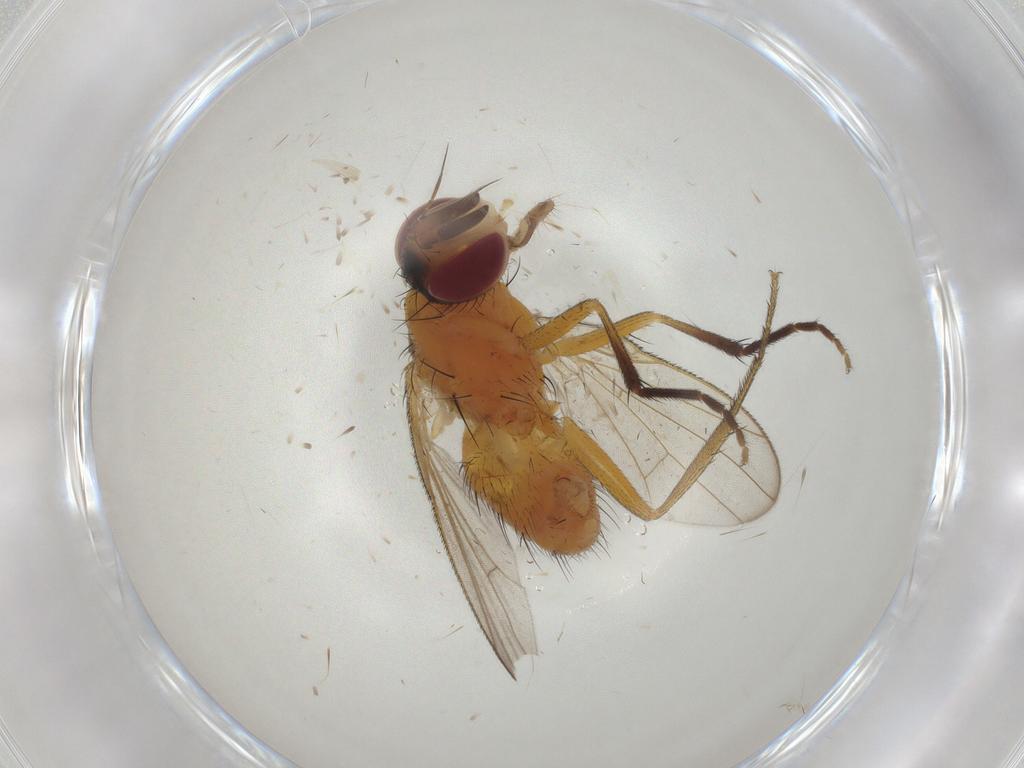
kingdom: Animalia
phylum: Arthropoda
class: Insecta
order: Diptera
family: Muscidae
